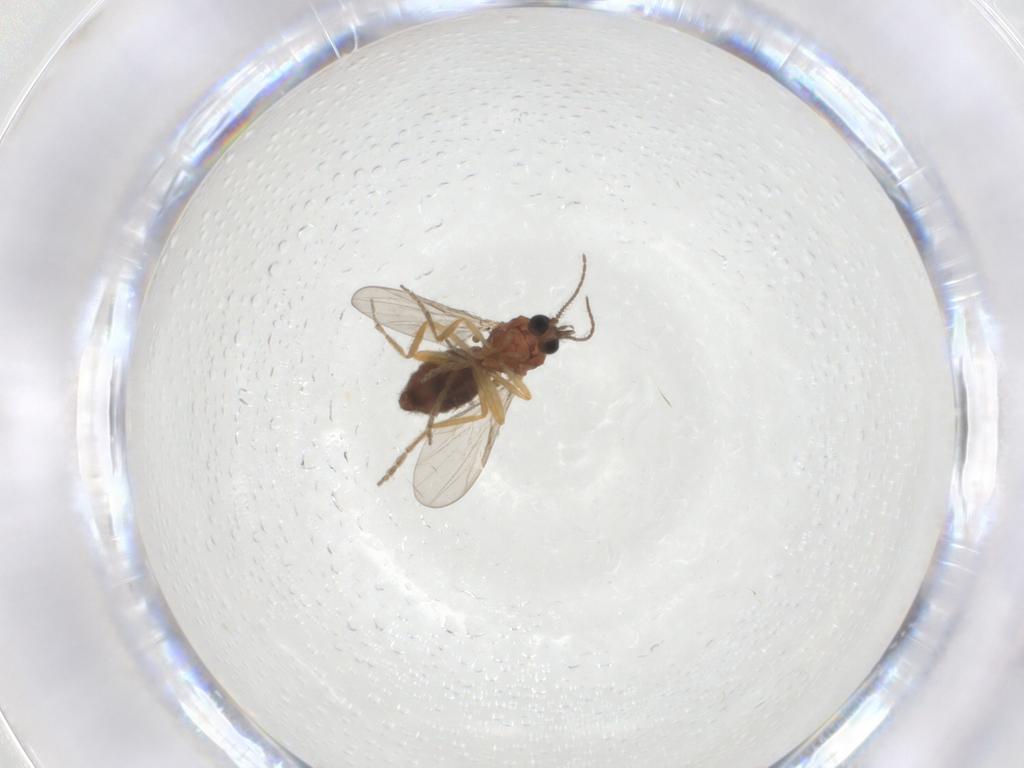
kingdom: Animalia
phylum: Arthropoda
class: Insecta
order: Diptera
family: Ceratopogonidae
